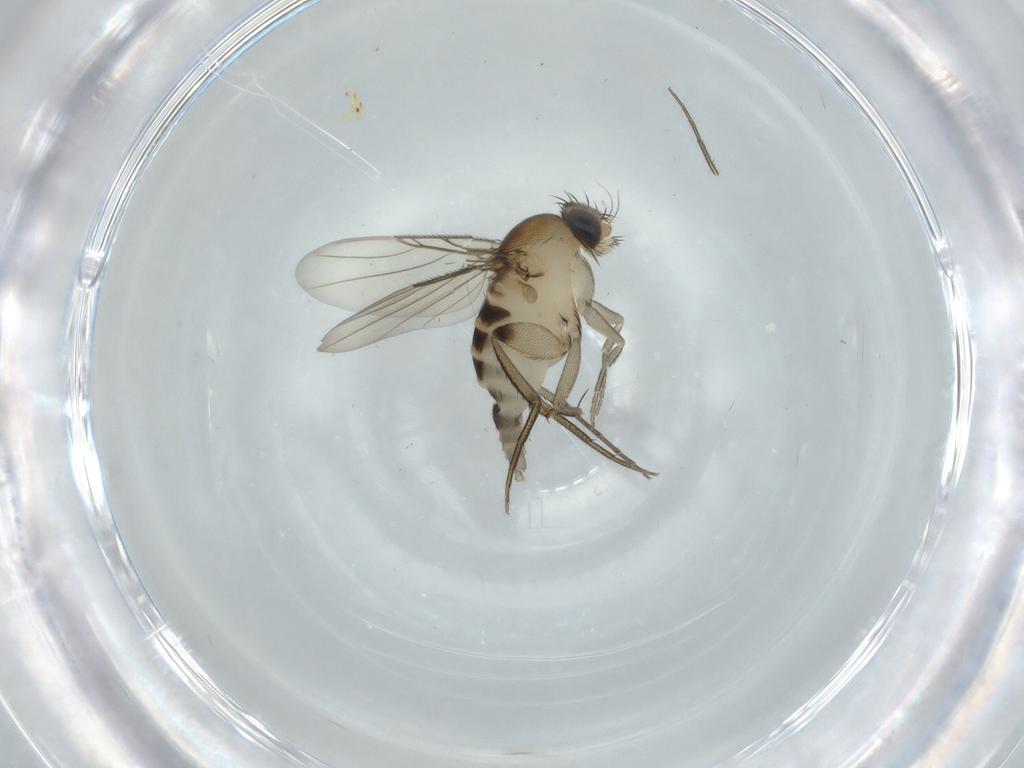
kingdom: Animalia
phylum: Arthropoda
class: Insecta
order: Diptera
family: Phoridae
